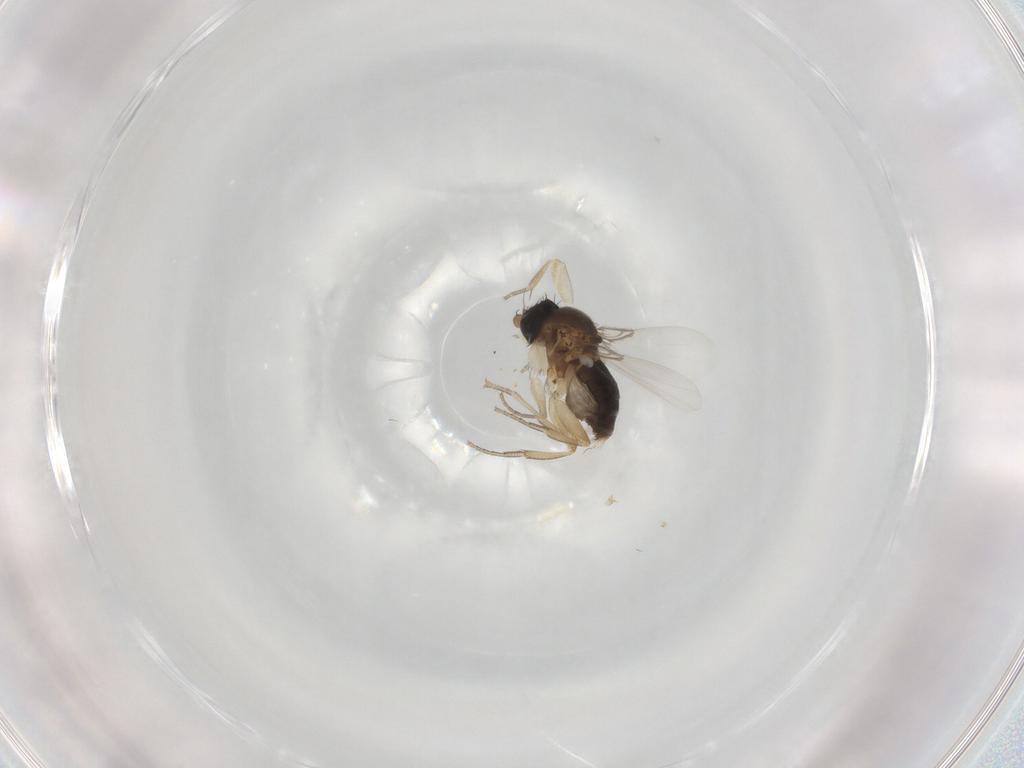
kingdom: Animalia
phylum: Arthropoda
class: Insecta
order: Diptera
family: Phoridae
